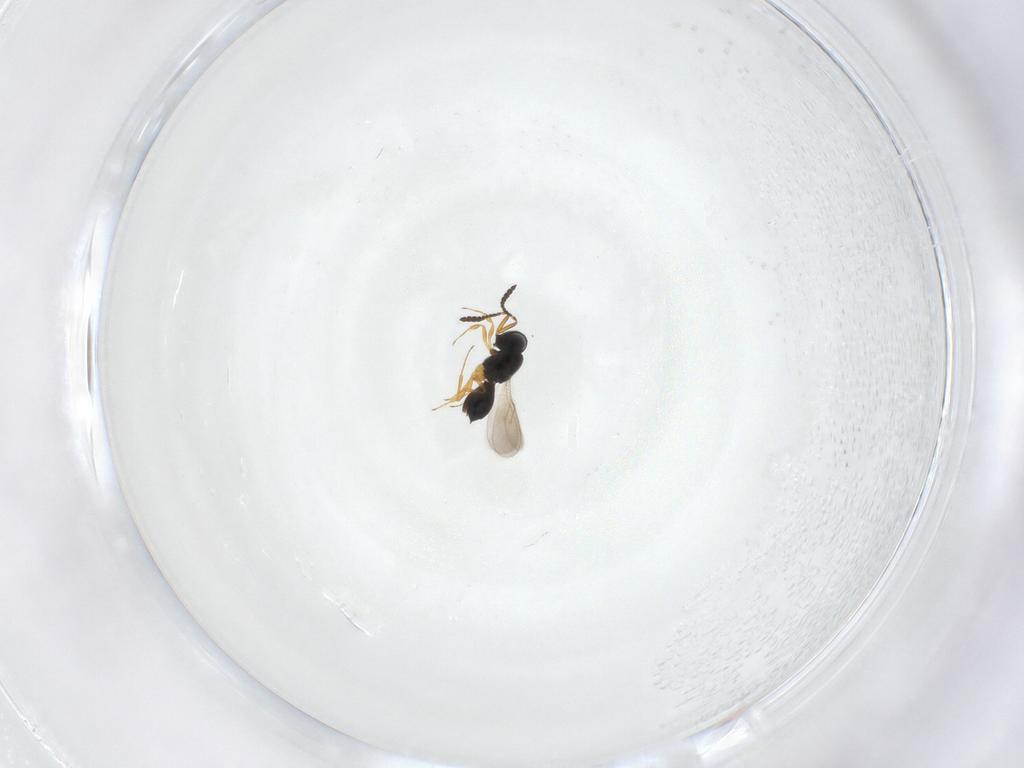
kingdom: Animalia
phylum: Arthropoda
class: Insecta
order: Hymenoptera
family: Scelionidae
